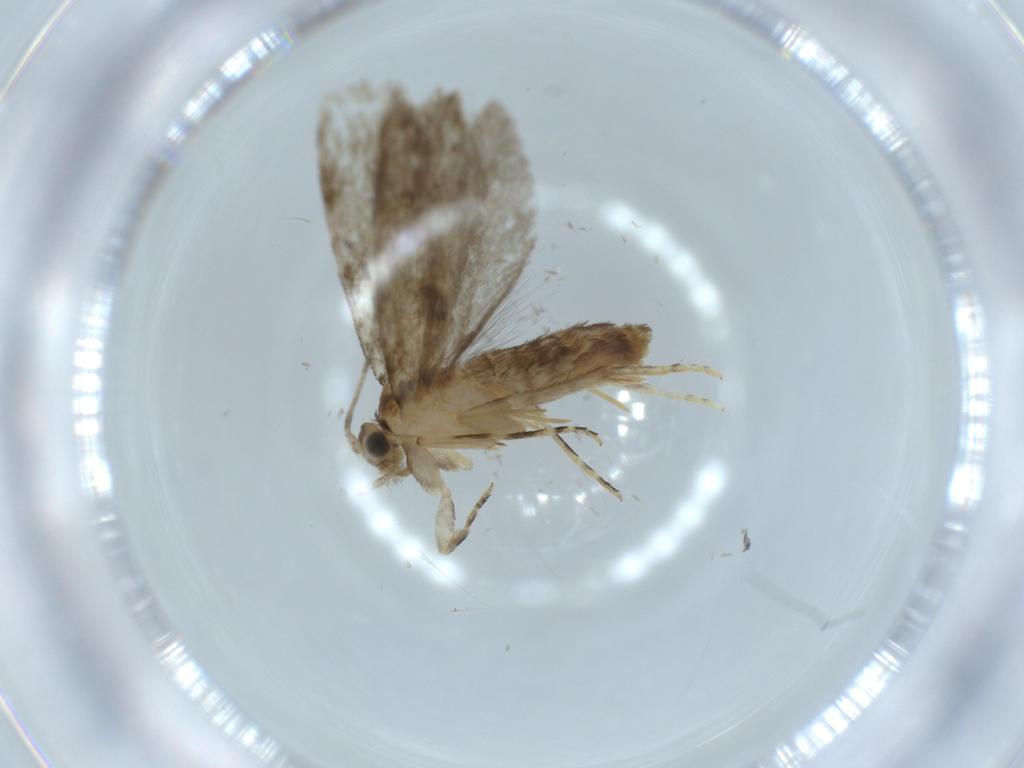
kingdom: Animalia
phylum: Arthropoda
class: Insecta
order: Lepidoptera
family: Tineidae
